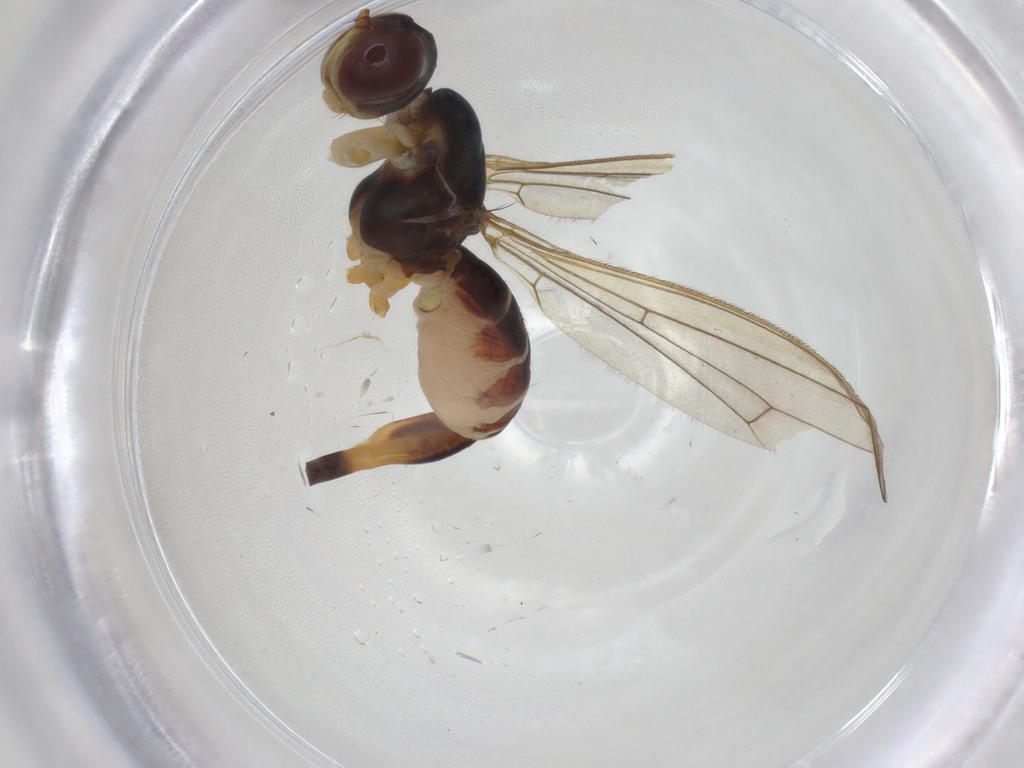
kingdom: Animalia
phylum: Arthropoda
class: Insecta
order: Diptera
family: Micropezidae
